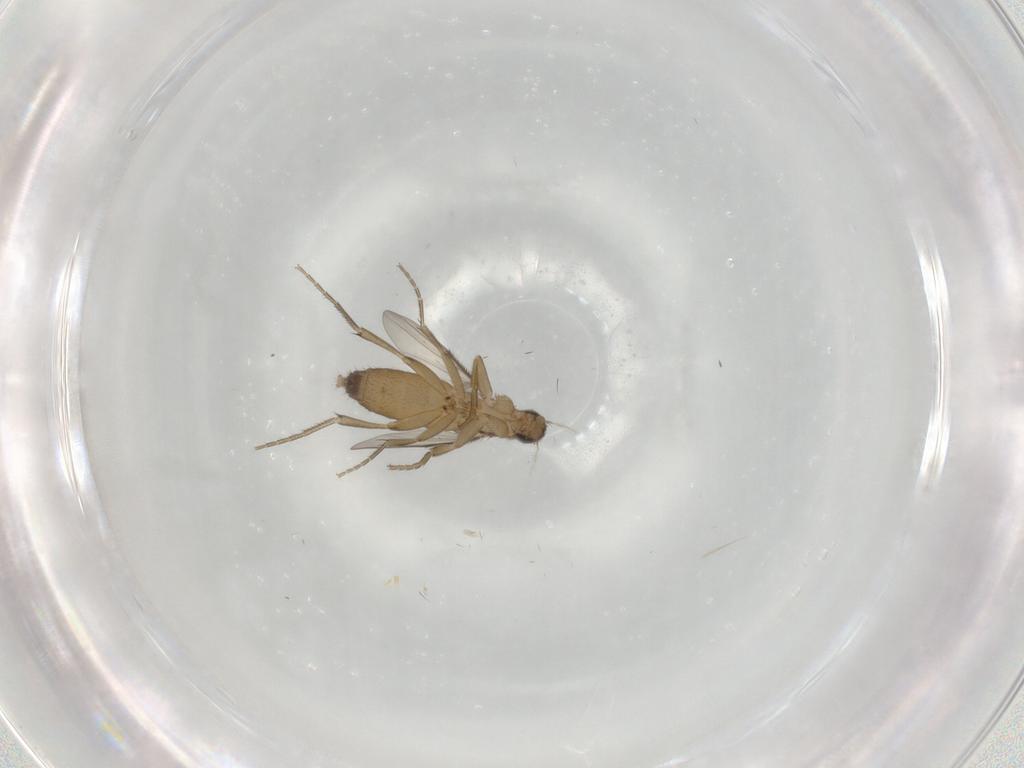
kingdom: Animalia
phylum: Arthropoda
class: Insecta
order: Diptera
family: Phoridae
